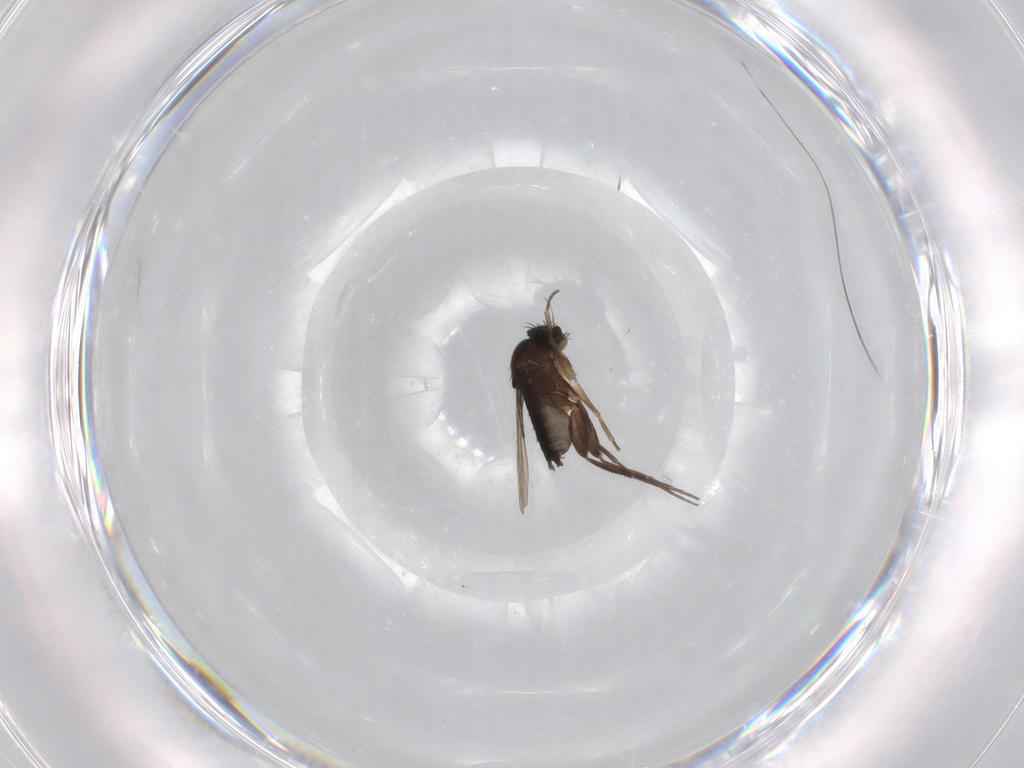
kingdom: Animalia
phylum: Arthropoda
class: Insecta
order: Diptera
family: Phoridae
